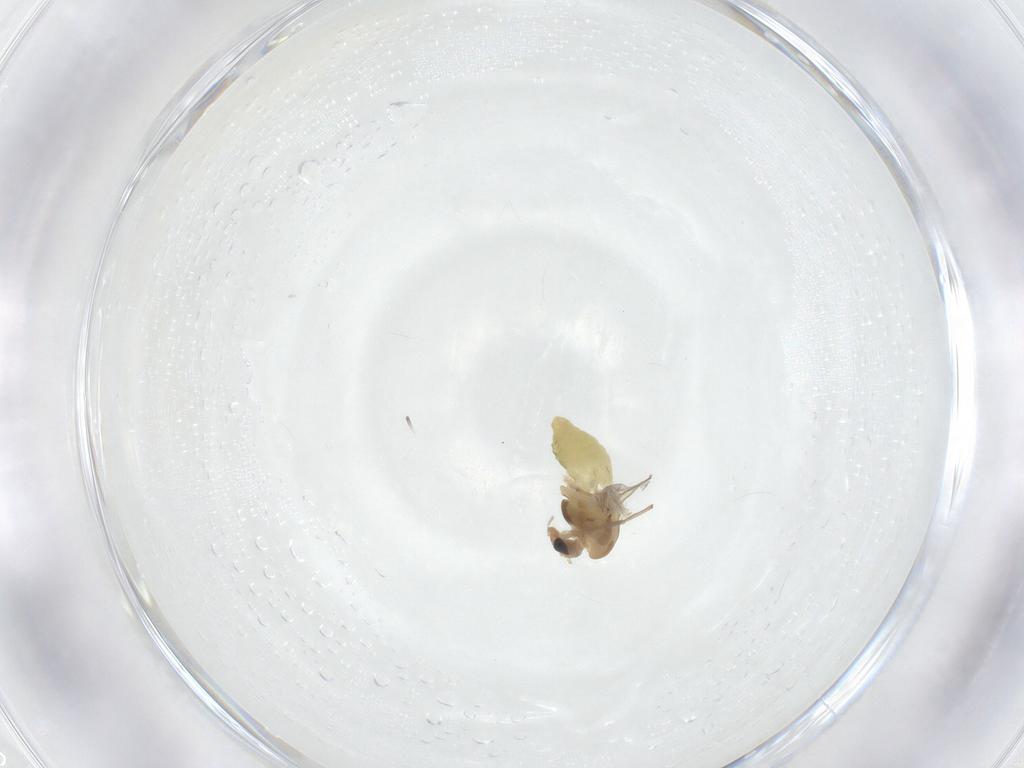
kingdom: Animalia
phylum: Arthropoda
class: Insecta
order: Diptera
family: Chironomidae
